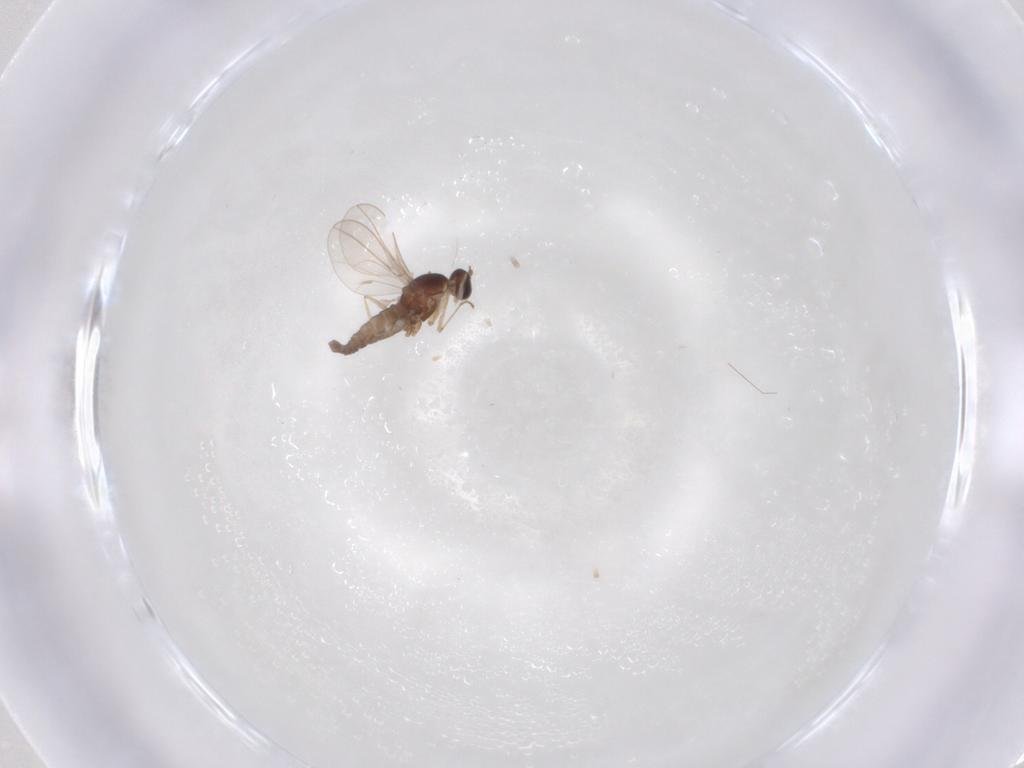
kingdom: Animalia
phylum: Arthropoda
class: Insecta
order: Diptera
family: Cecidomyiidae
